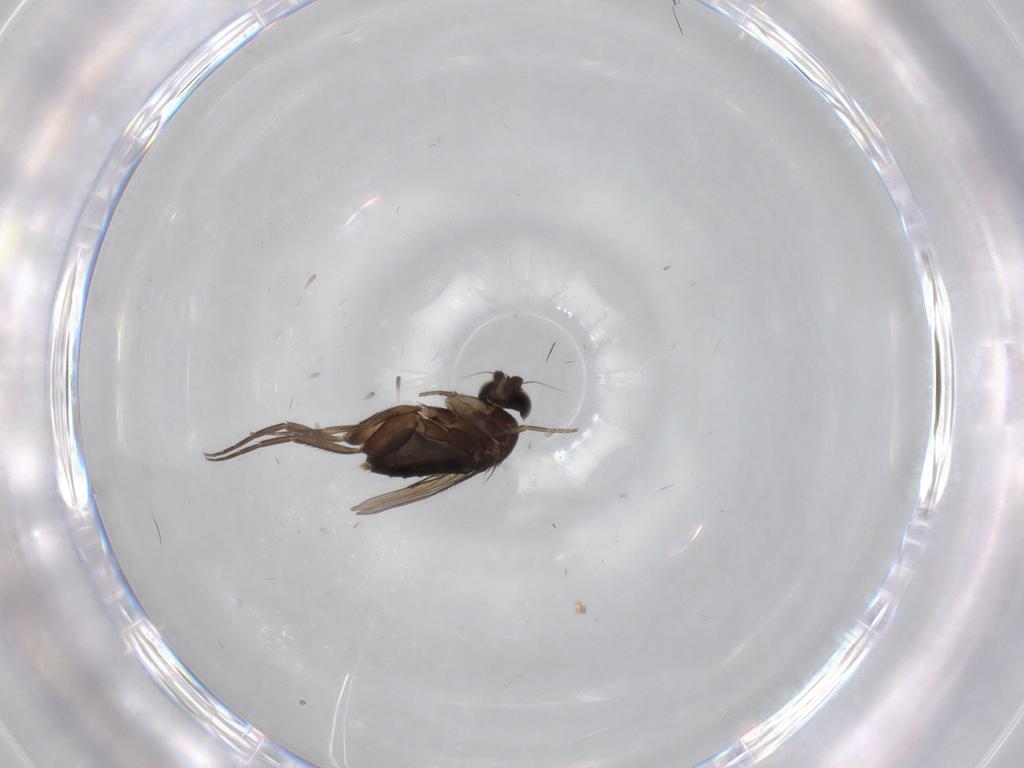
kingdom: Animalia
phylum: Arthropoda
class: Insecta
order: Diptera
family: Phoridae
